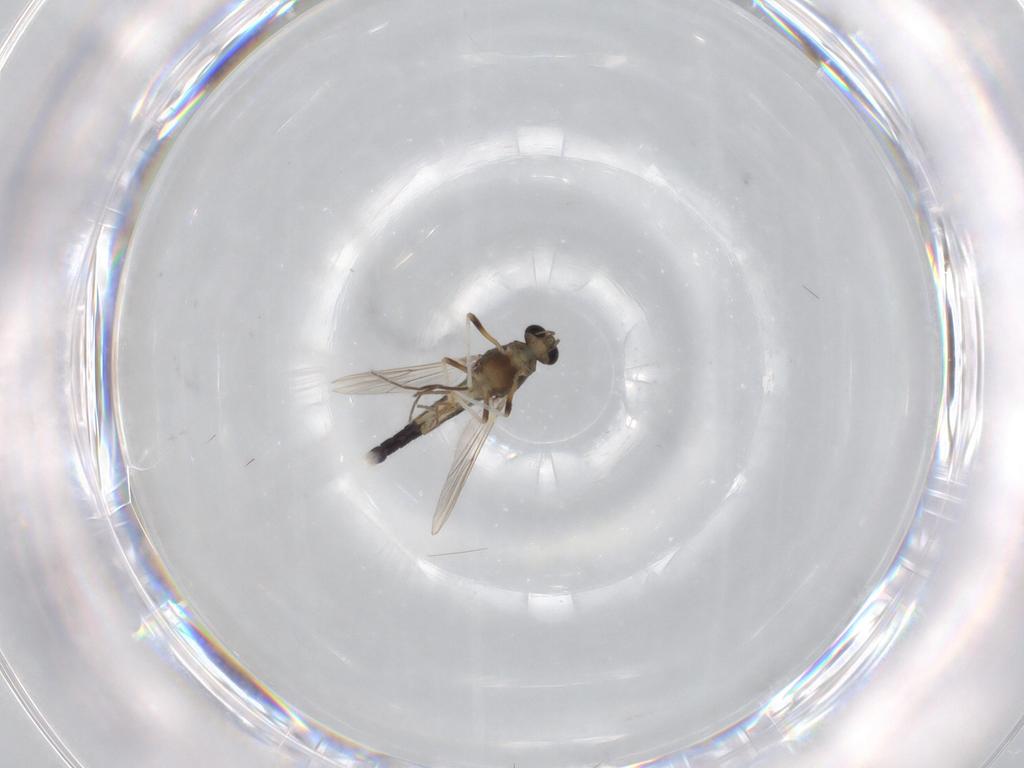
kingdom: Animalia
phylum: Arthropoda
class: Insecta
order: Diptera
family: Chironomidae
